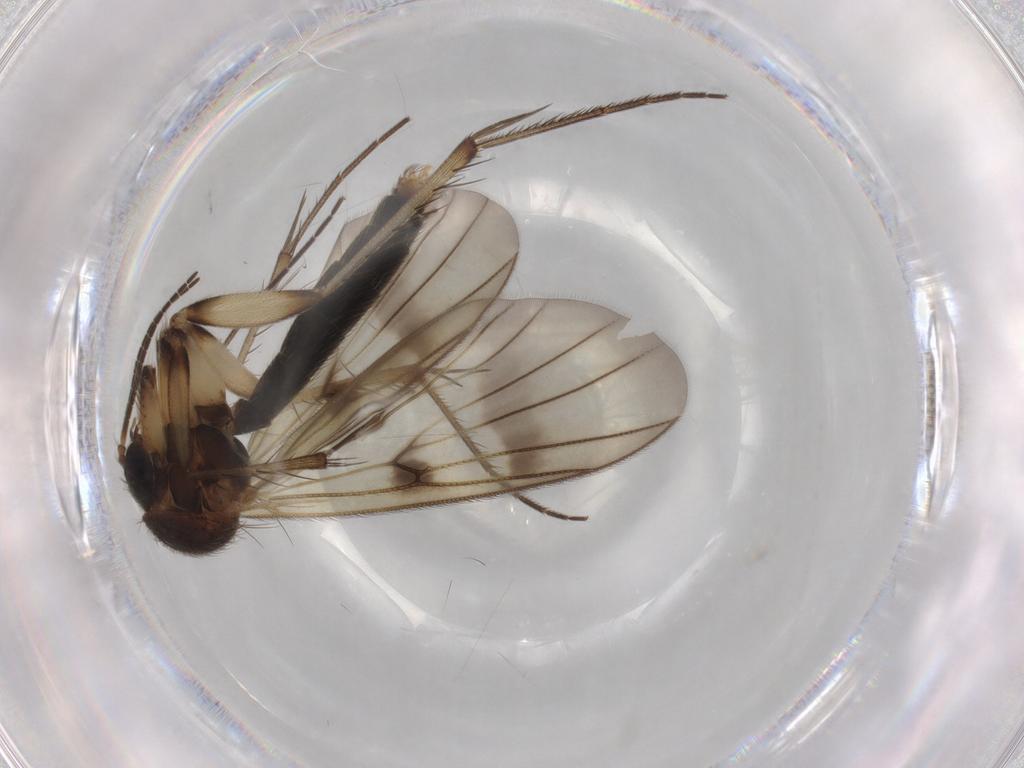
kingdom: Animalia
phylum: Arthropoda
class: Insecta
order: Diptera
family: Mycetophilidae
